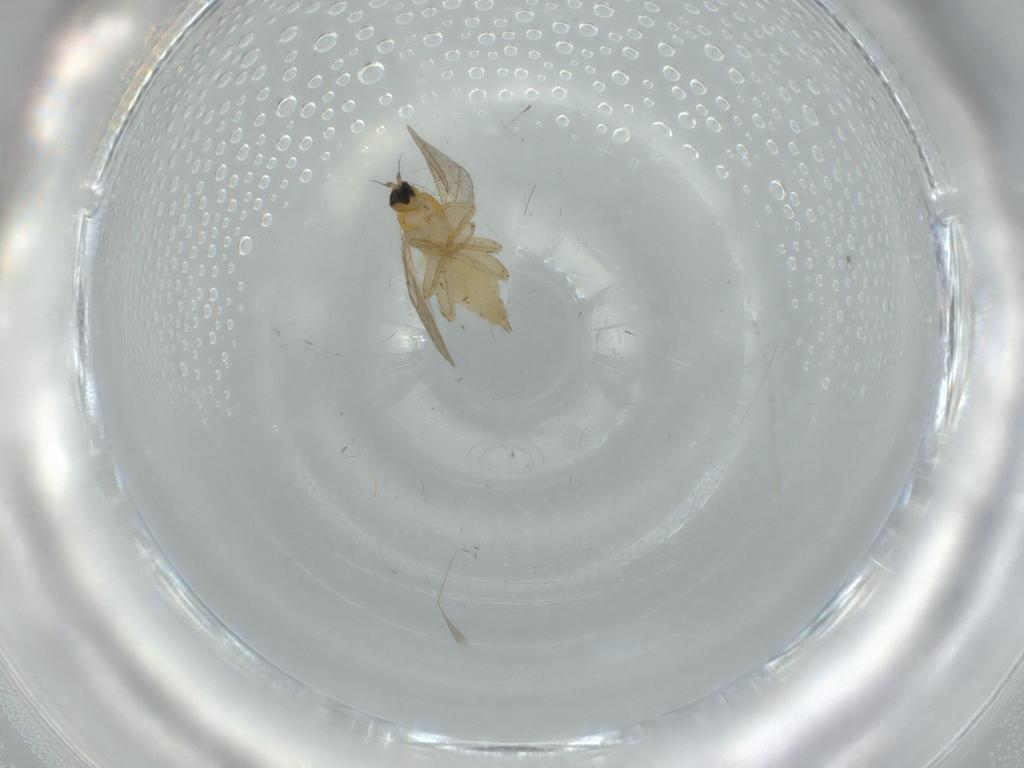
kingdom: Animalia
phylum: Arthropoda
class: Insecta
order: Diptera
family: Hybotidae
